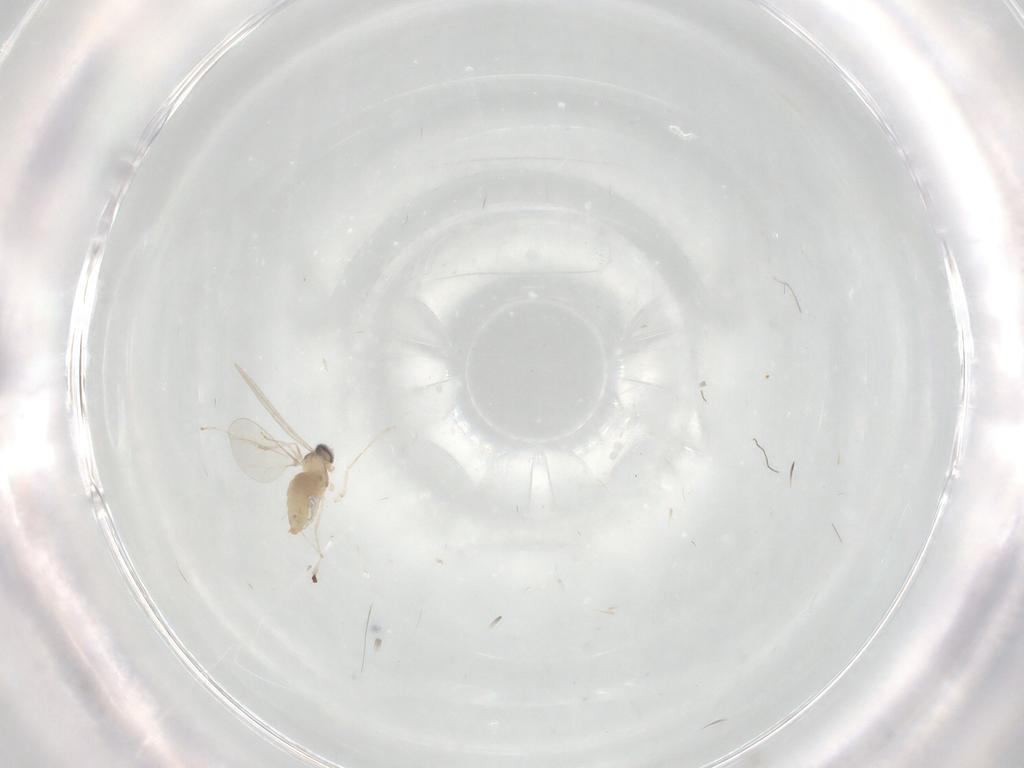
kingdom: Animalia
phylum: Arthropoda
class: Insecta
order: Diptera
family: Cecidomyiidae
